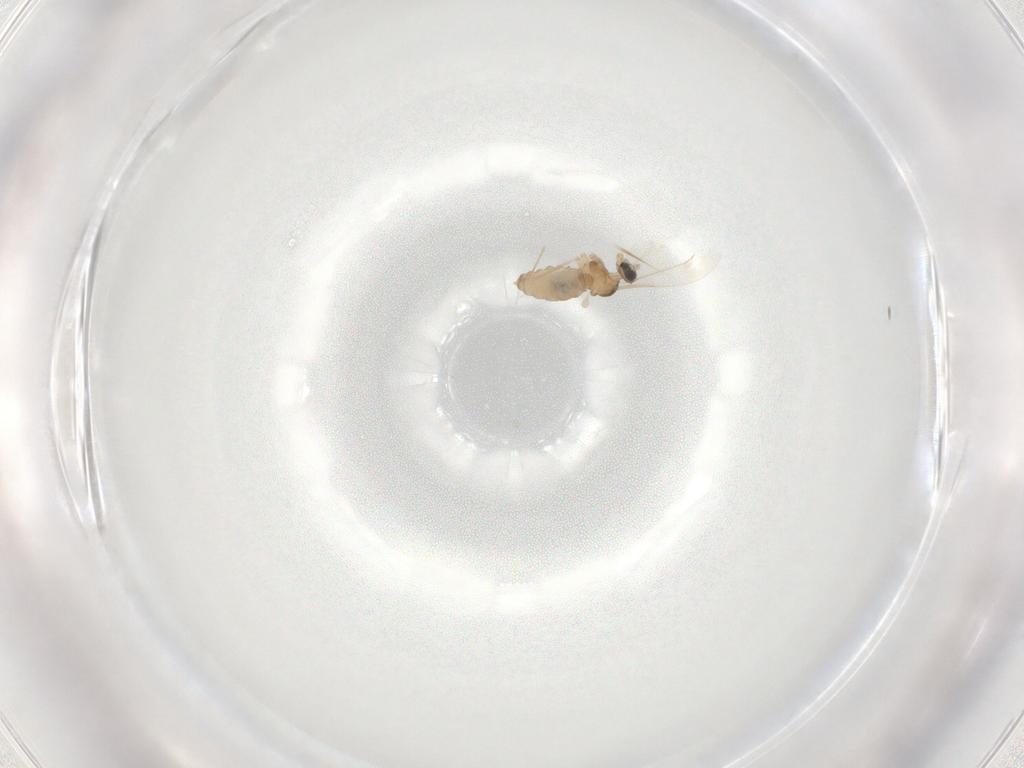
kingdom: Animalia
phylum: Arthropoda
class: Insecta
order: Diptera
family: Cecidomyiidae
